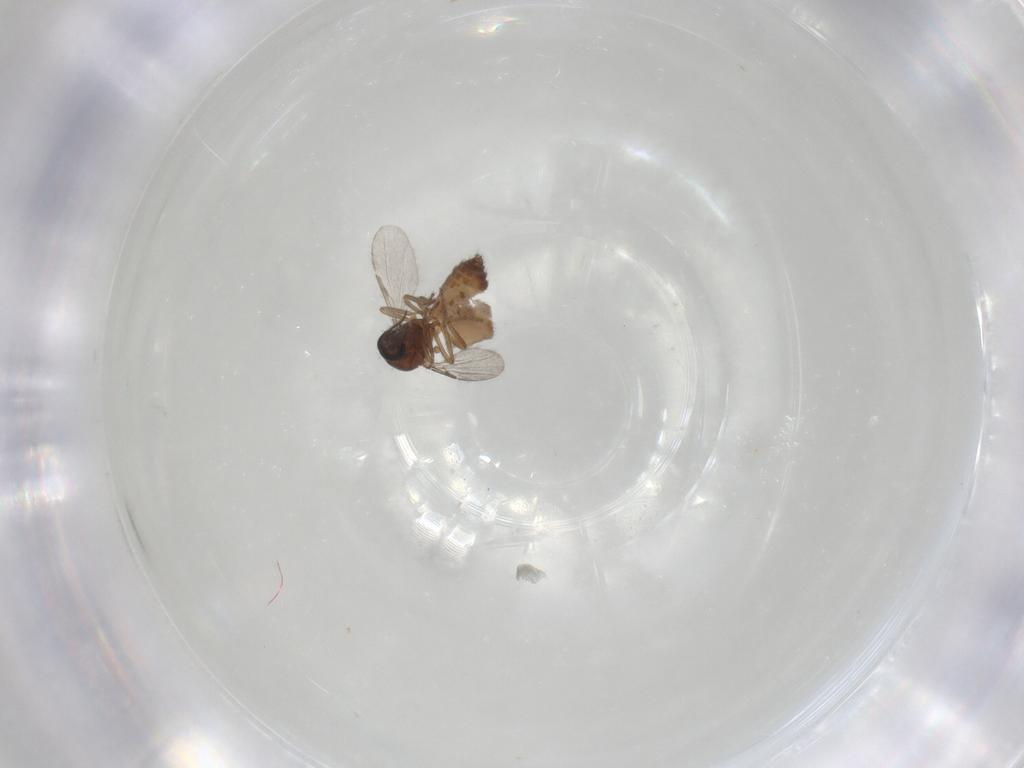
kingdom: Animalia
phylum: Arthropoda
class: Insecta
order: Diptera
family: Ceratopogonidae
